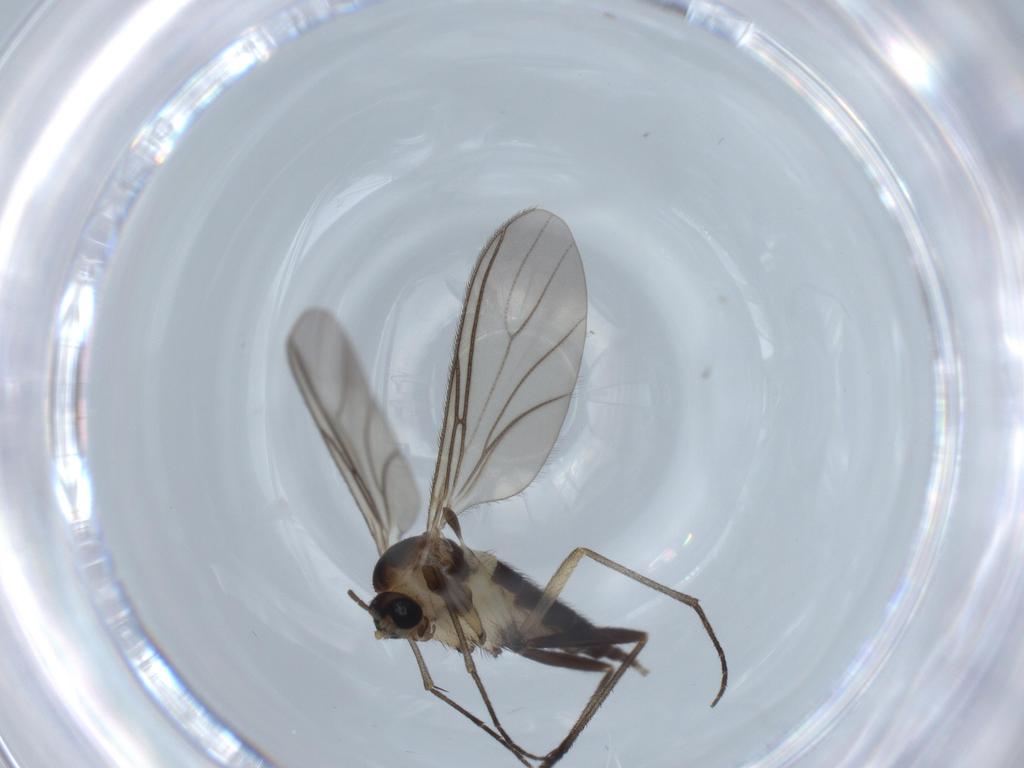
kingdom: Animalia
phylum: Arthropoda
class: Insecta
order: Diptera
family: Sciaridae
